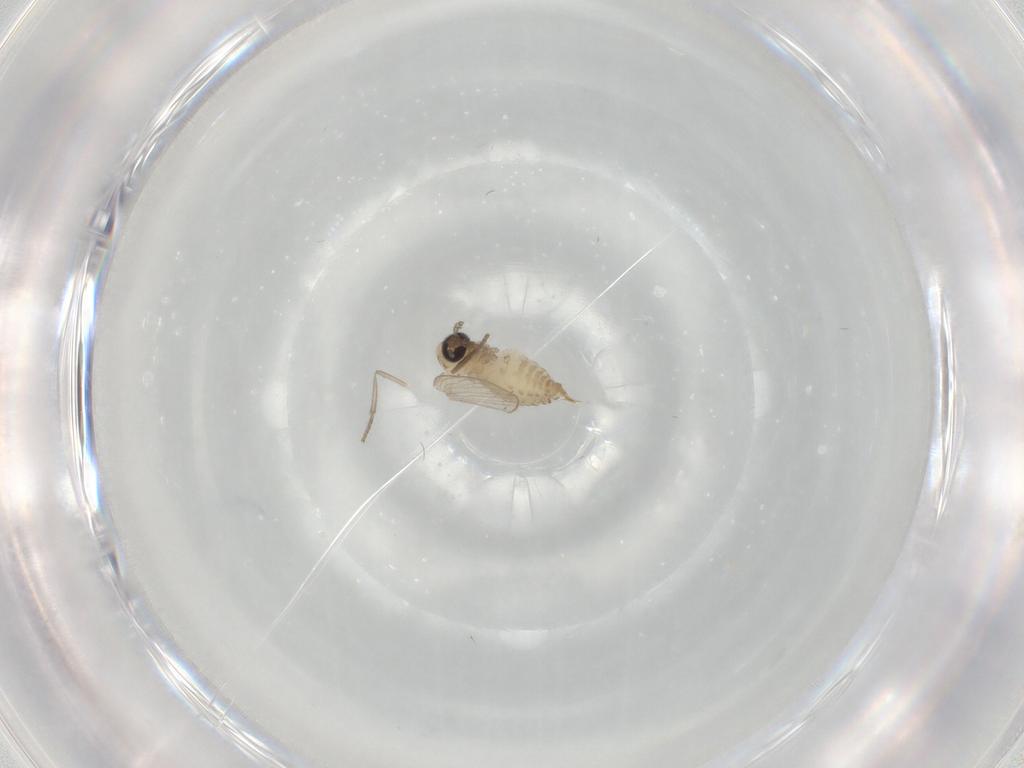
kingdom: Animalia
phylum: Arthropoda
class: Insecta
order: Diptera
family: Psychodidae
